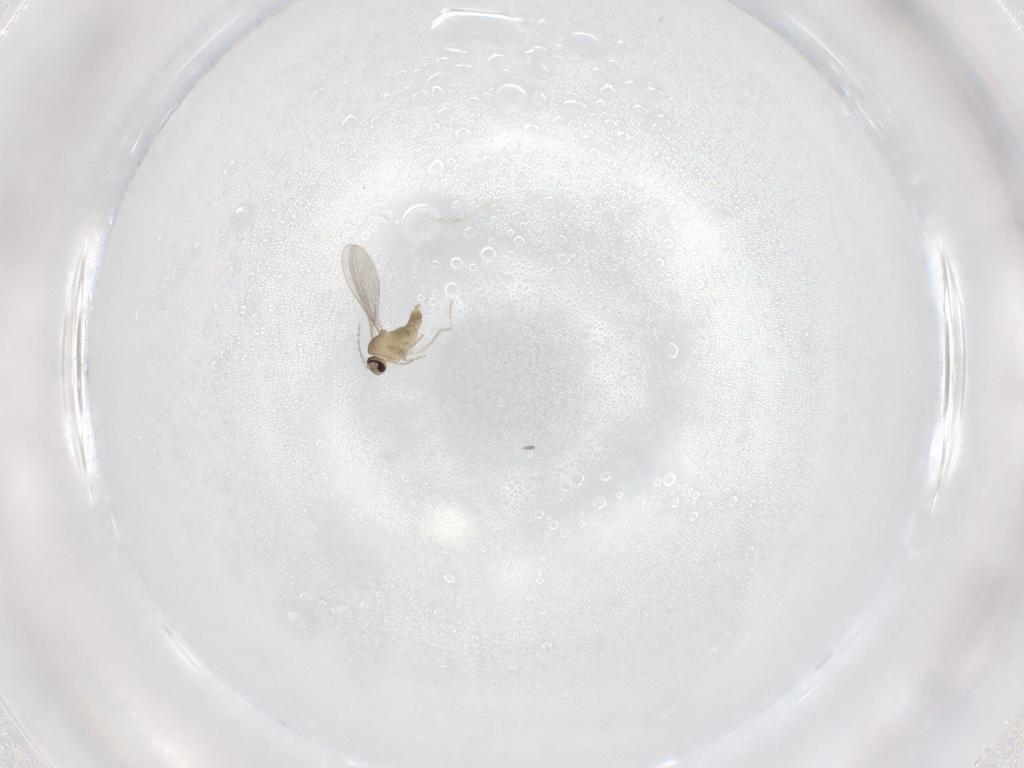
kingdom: Animalia
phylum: Arthropoda
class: Insecta
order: Diptera
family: Cecidomyiidae
